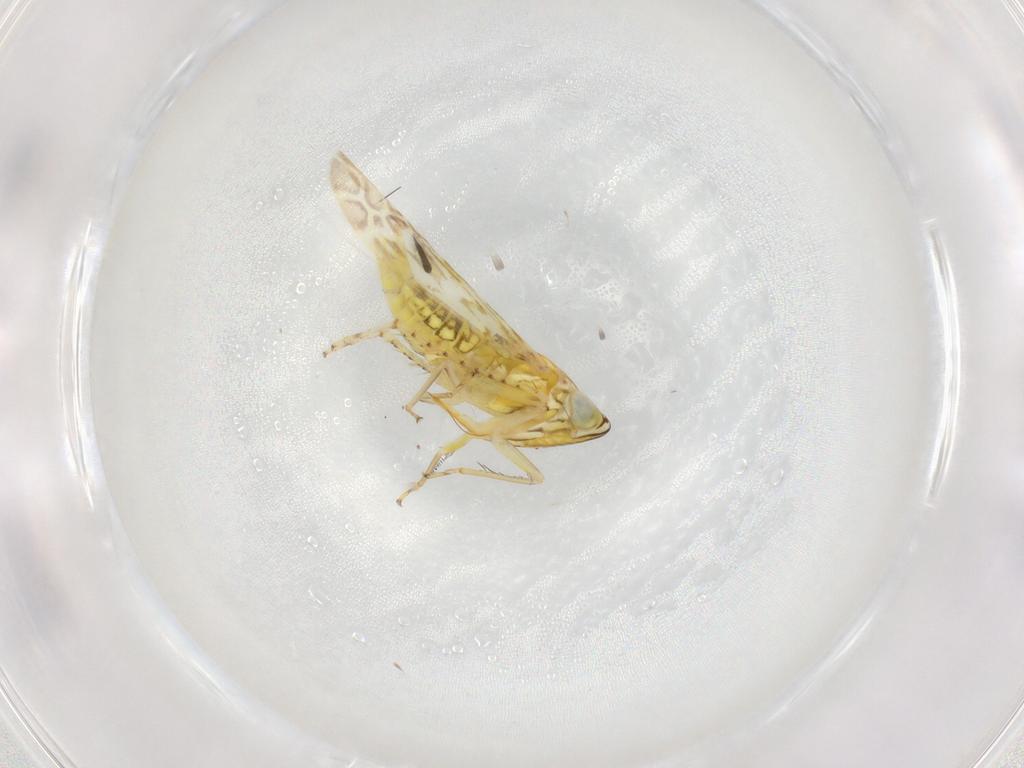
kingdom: Animalia
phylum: Arthropoda
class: Insecta
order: Hemiptera
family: Cicadellidae
